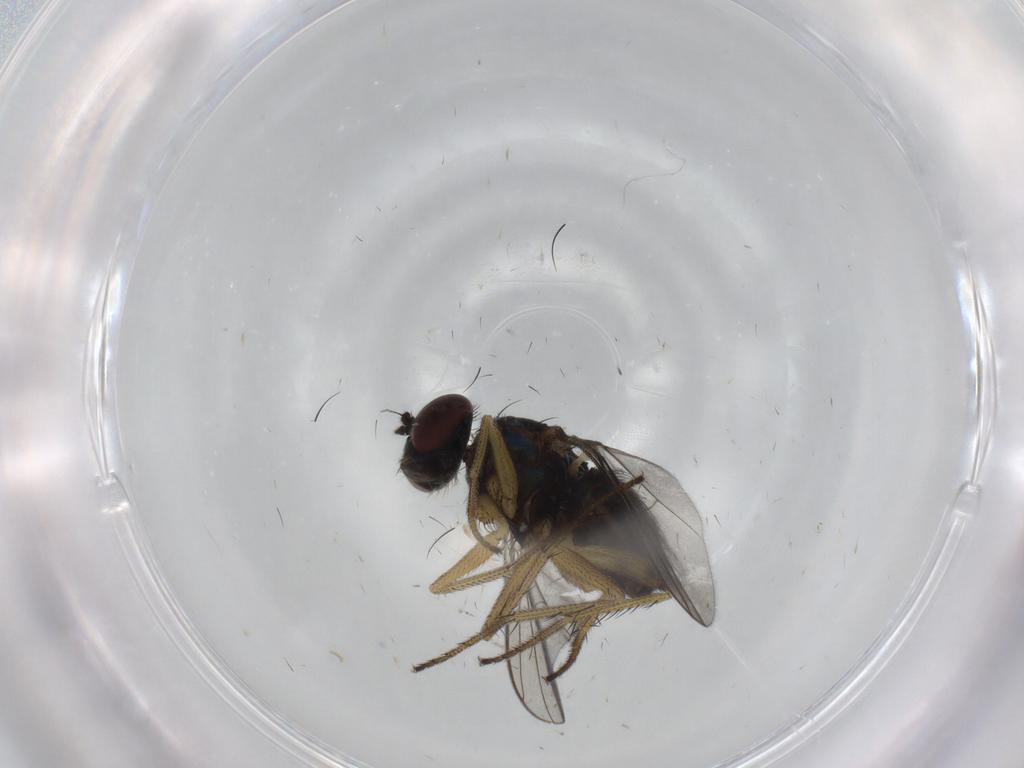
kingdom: Animalia
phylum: Arthropoda
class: Insecta
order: Diptera
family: Dolichopodidae
